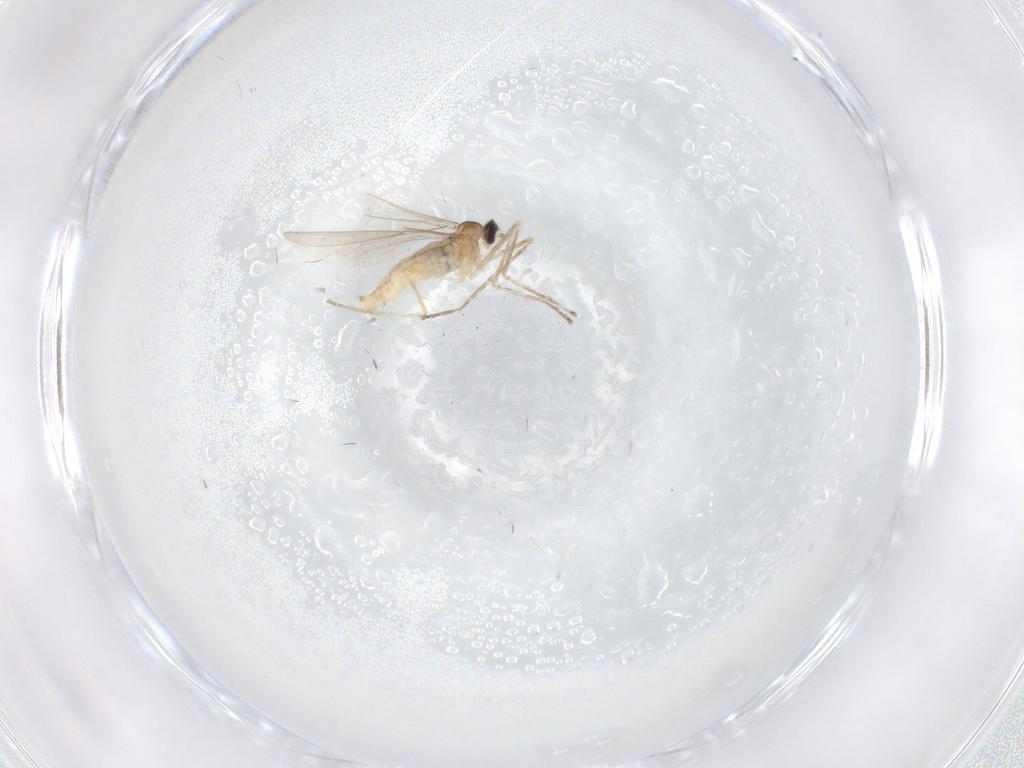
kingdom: Animalia
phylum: Arthropoda
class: Insecta
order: Diptera
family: Cecidomyiidae
